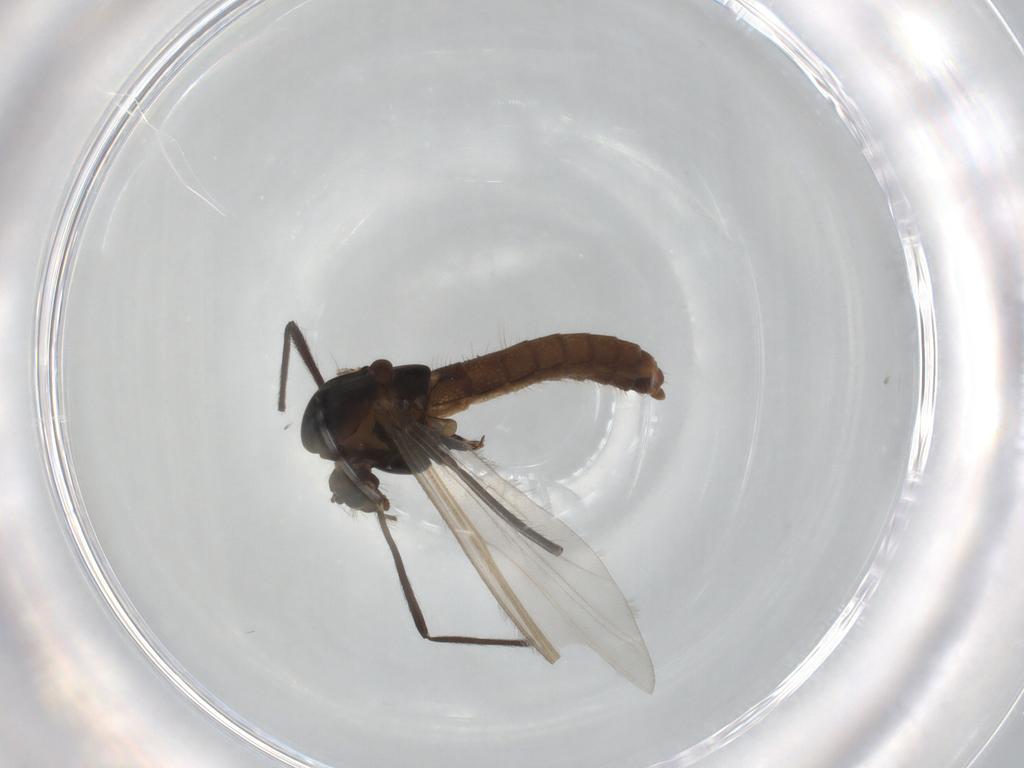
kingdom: Animalia
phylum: Arthropoda
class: Insecta
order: Diptera
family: Chironomidae
